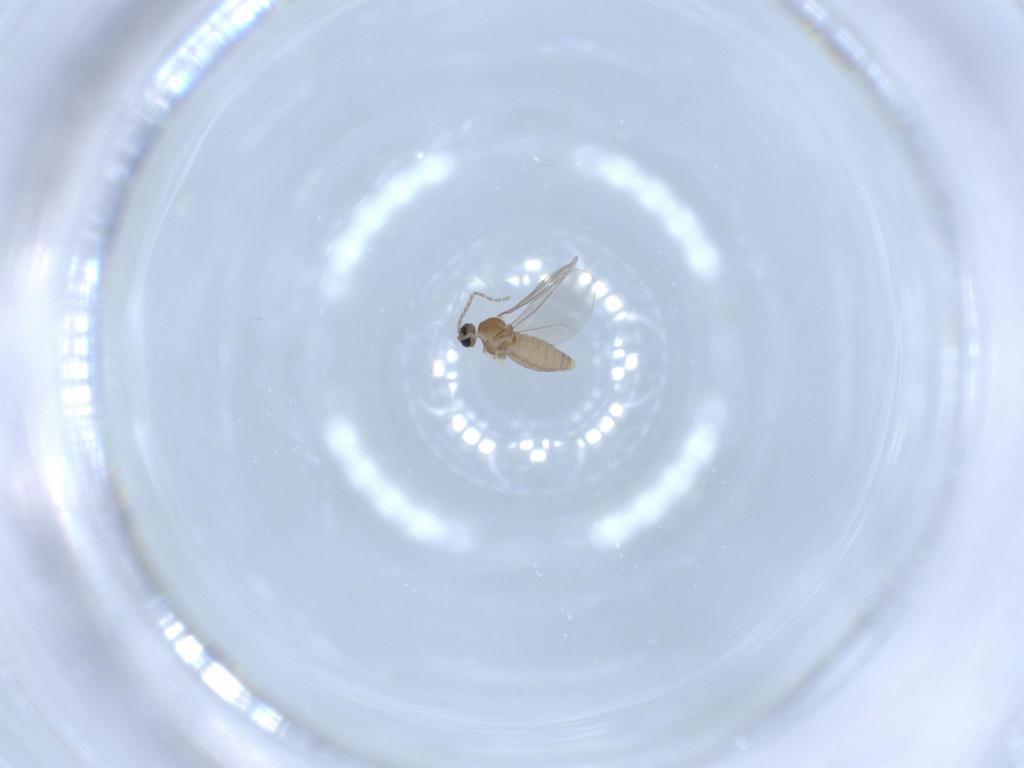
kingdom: Animalia
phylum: Arthropoda
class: Insecta
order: Diptera
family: Cecidomyiidae
